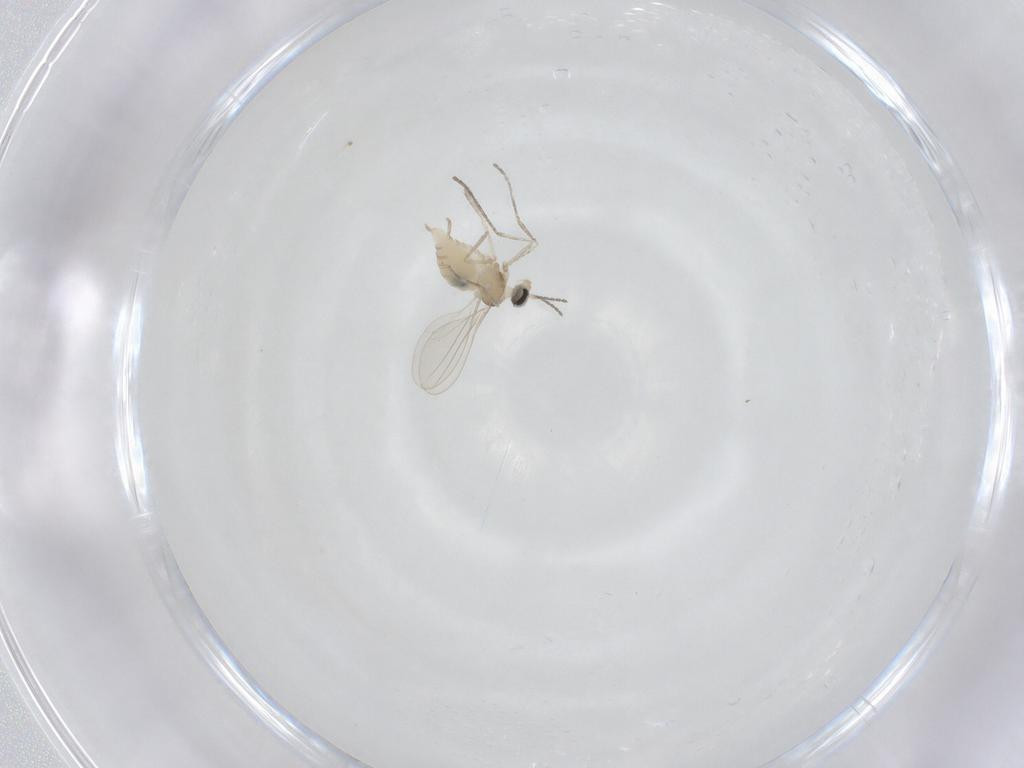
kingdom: Animalia
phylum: Arthropoda
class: Insecta
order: Diptera
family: Cecidomyiidae
